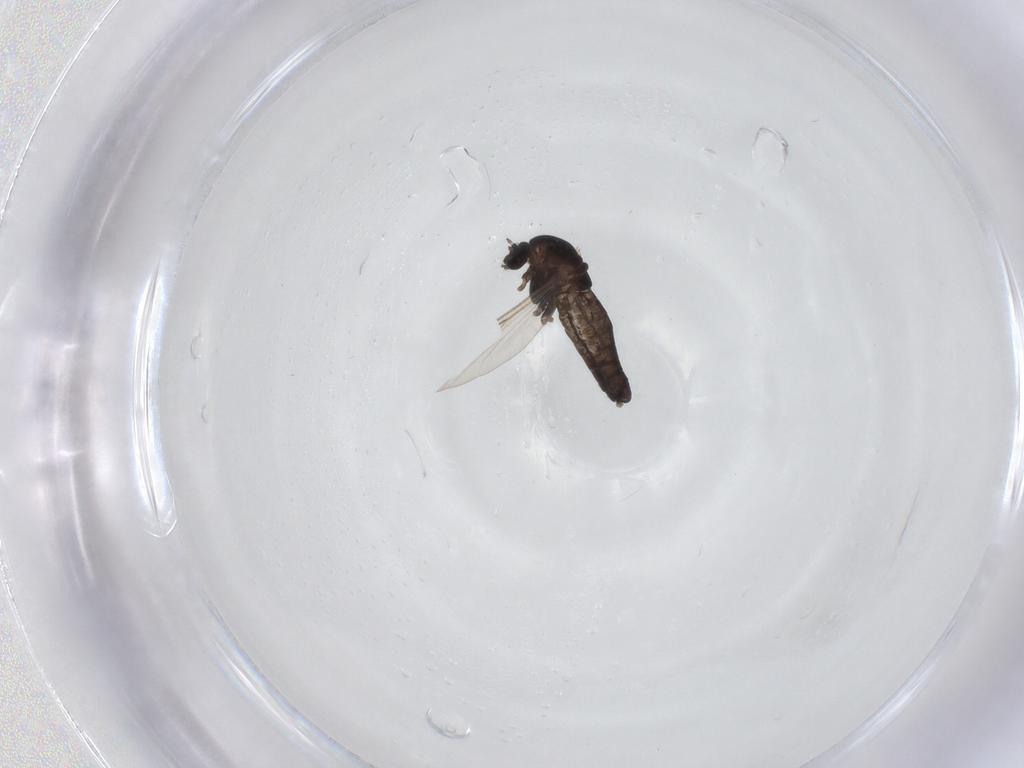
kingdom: Animalia
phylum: Arthropoda
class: Insecta
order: Diptera
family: Chironomidae
